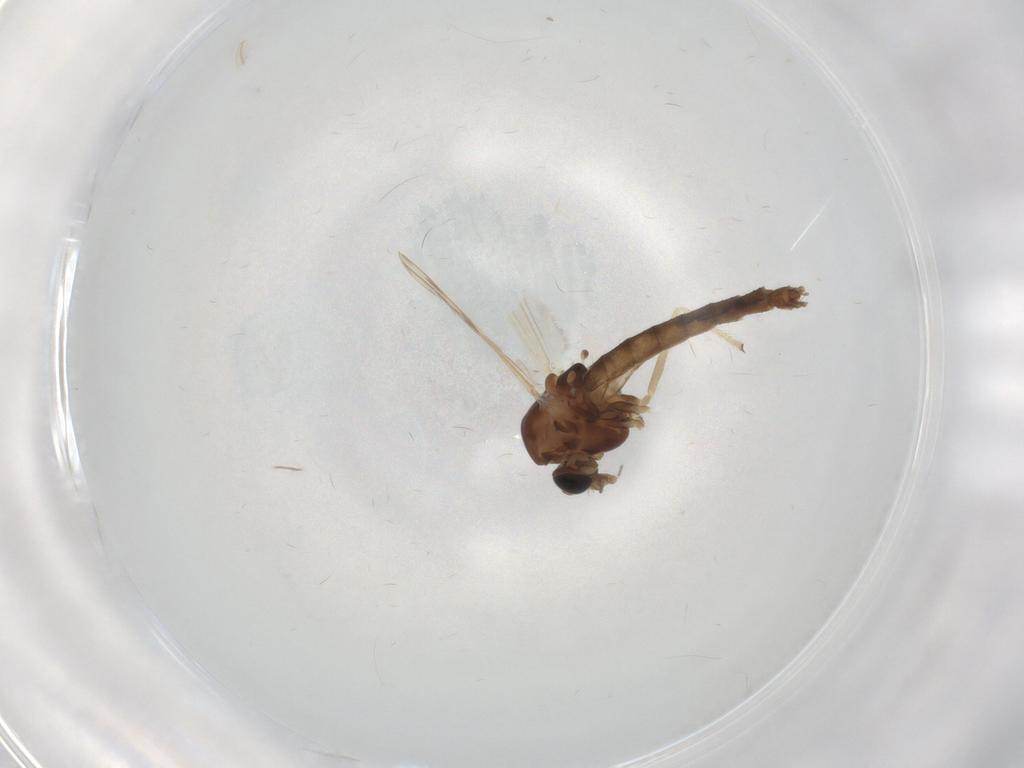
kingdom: Animalia
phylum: Arthropoda
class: Insecta
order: Diptera
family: Chironomidae
